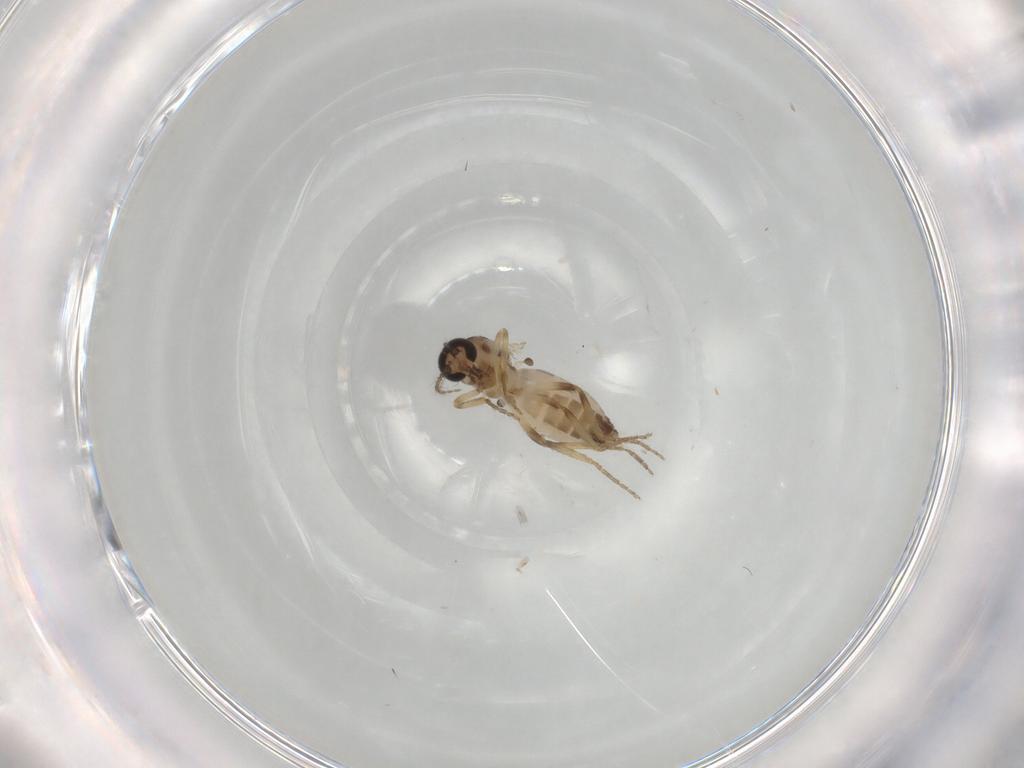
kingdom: Animalia
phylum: Arthropoda
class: Insecta
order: Diptera
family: Ceratopogonidae
